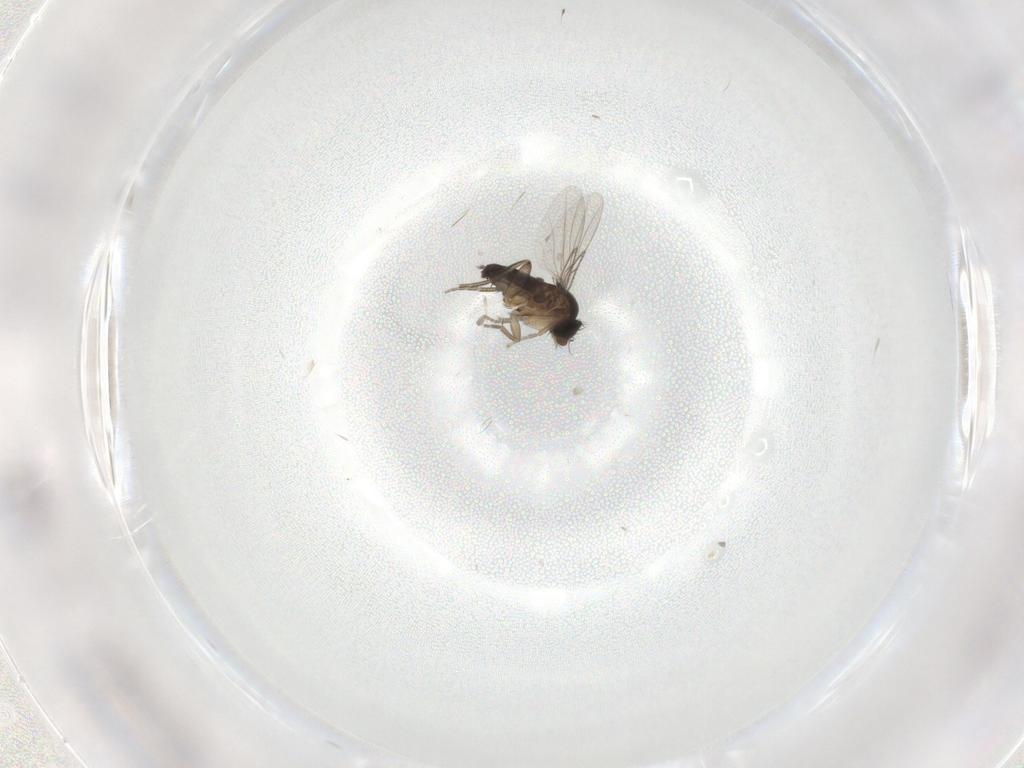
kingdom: Animalia
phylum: Arthropoda
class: Insecta
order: Diptera
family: Phoridae
